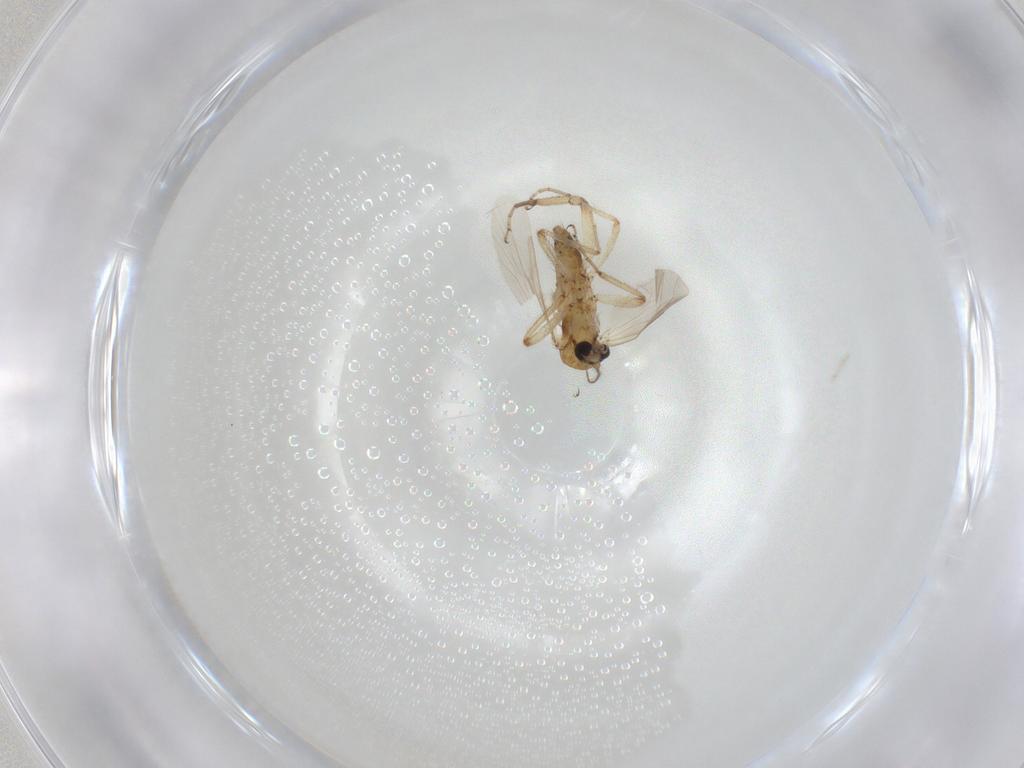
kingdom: Animalia
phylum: Arthropoda
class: Insecta
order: Diptera
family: Ceratopogonidae
